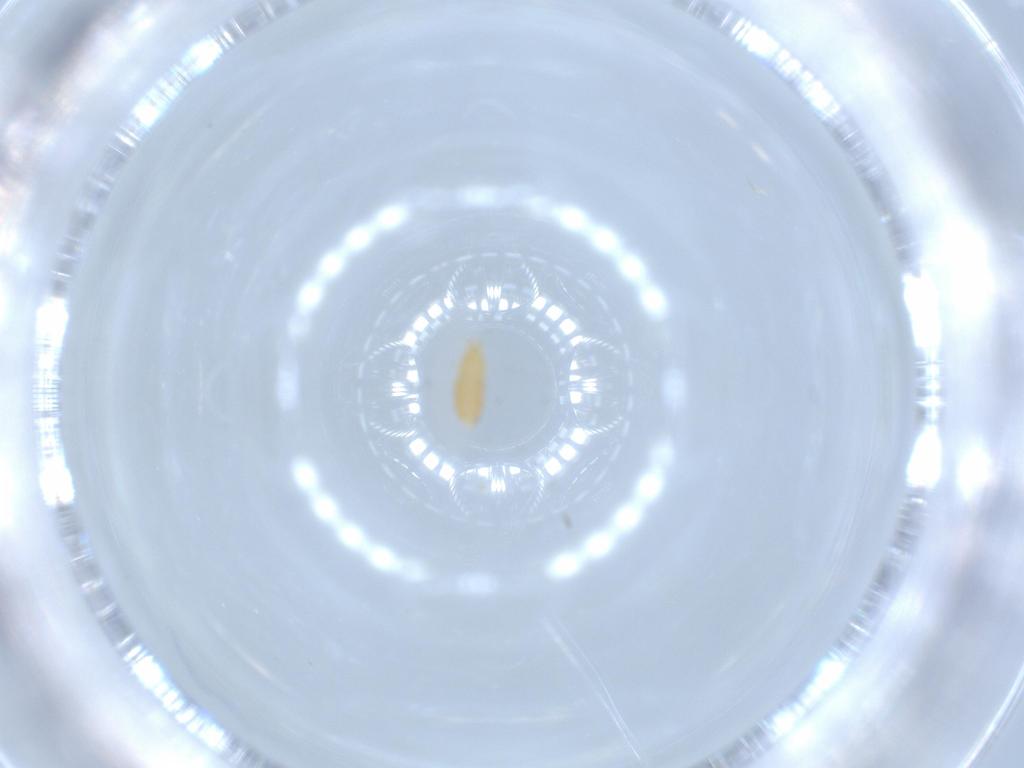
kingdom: Animalia
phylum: Arthropoda
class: Insecta
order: Thysanoptera
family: Thripidae
